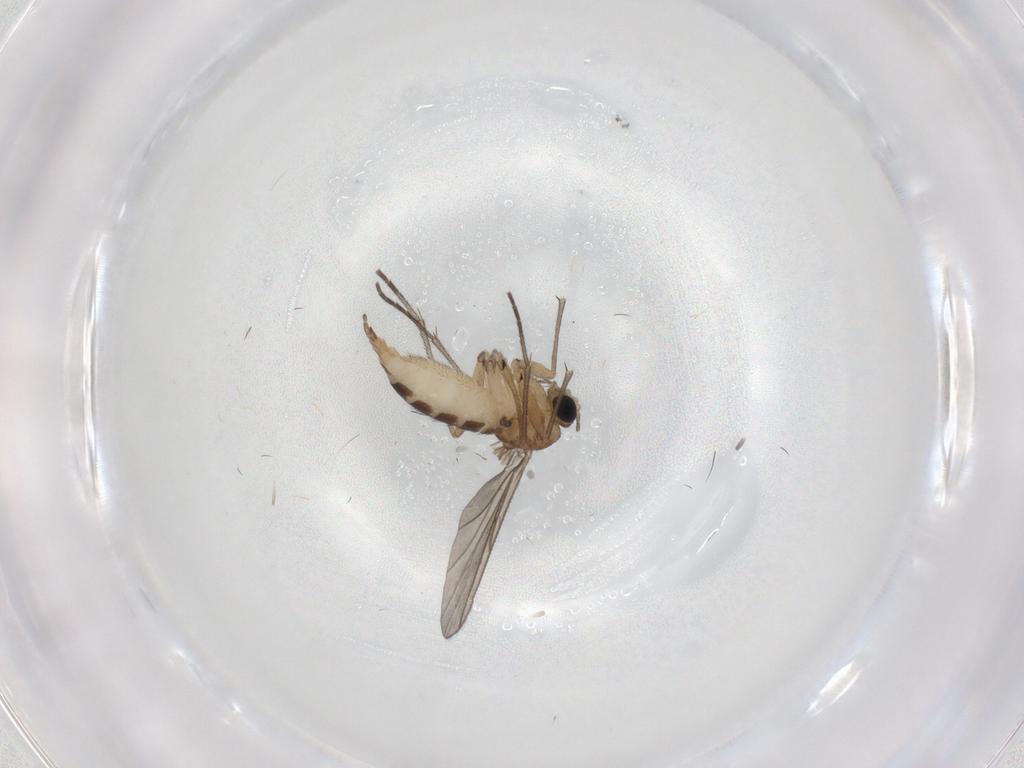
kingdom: Animalia
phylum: Arthropoda
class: Insecta
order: Diptera
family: Sciaridae
